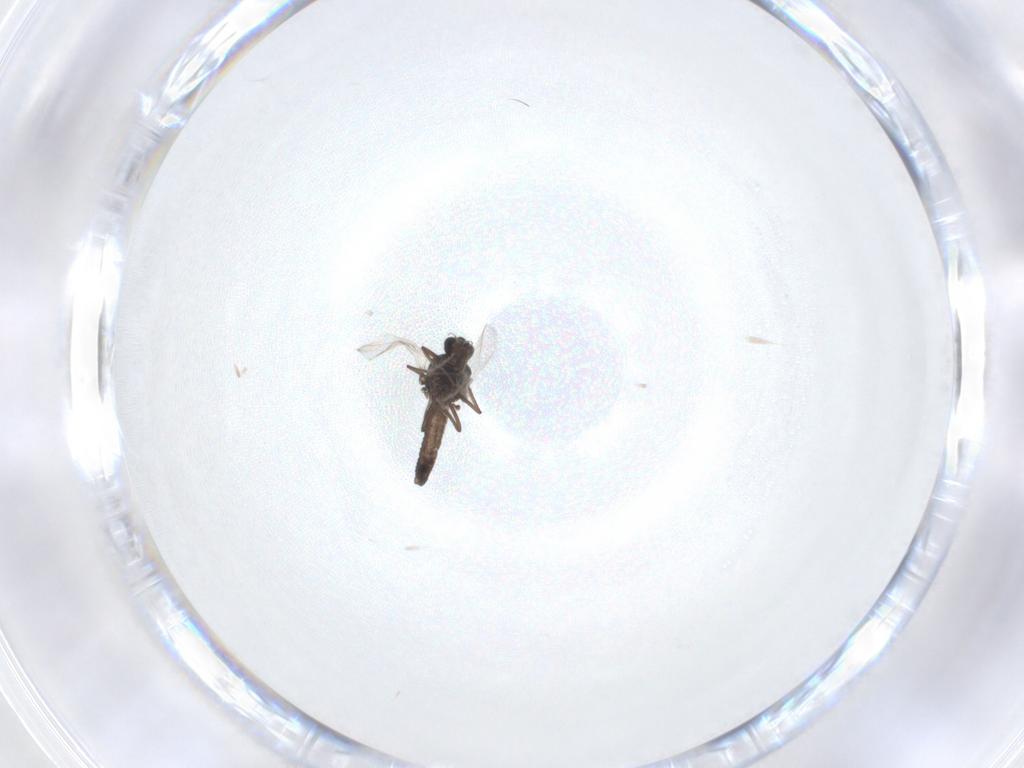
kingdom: Animalia
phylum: Arthropoda
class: Insecta
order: Diptera
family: Ceratopogonidae
